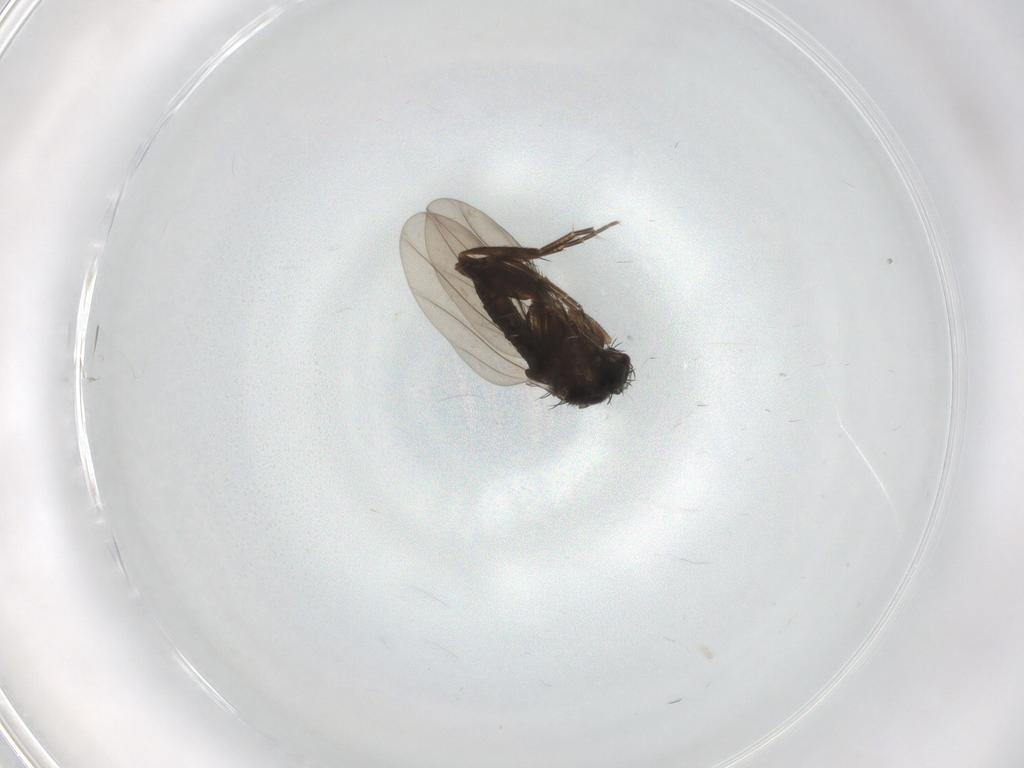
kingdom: Animalia
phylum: Arthropoda
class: Insecta
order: Diptera
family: Phoridae
